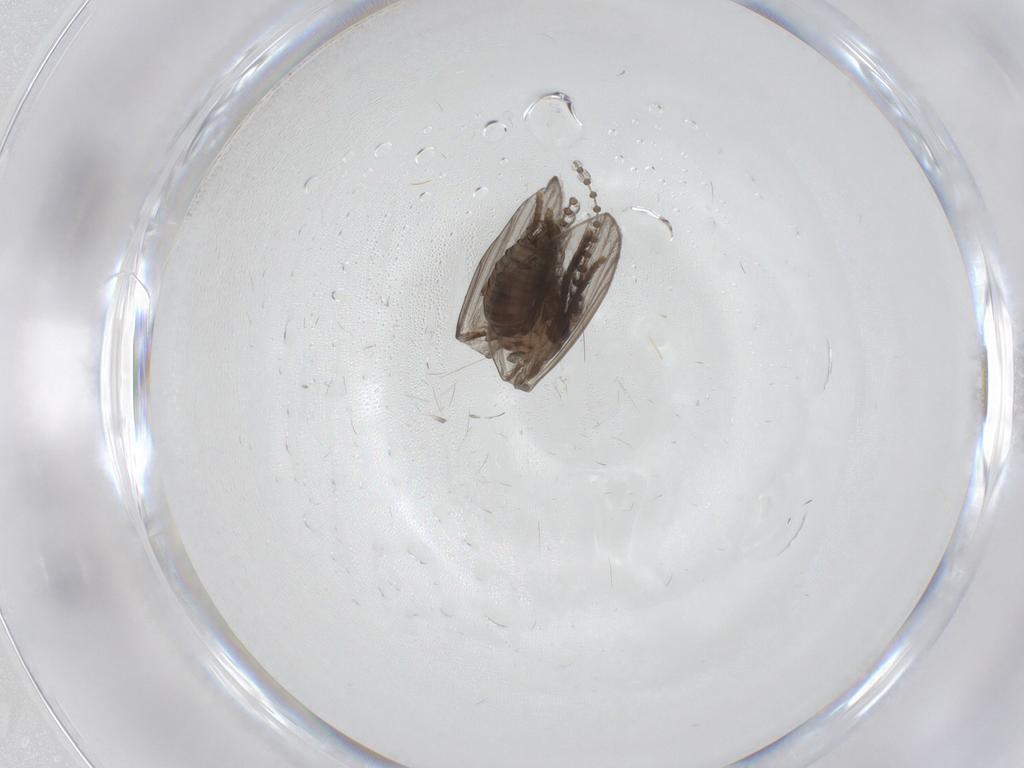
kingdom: Animalia
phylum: Arthropoda
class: Insecta
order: Diptera
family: Psychodidae
